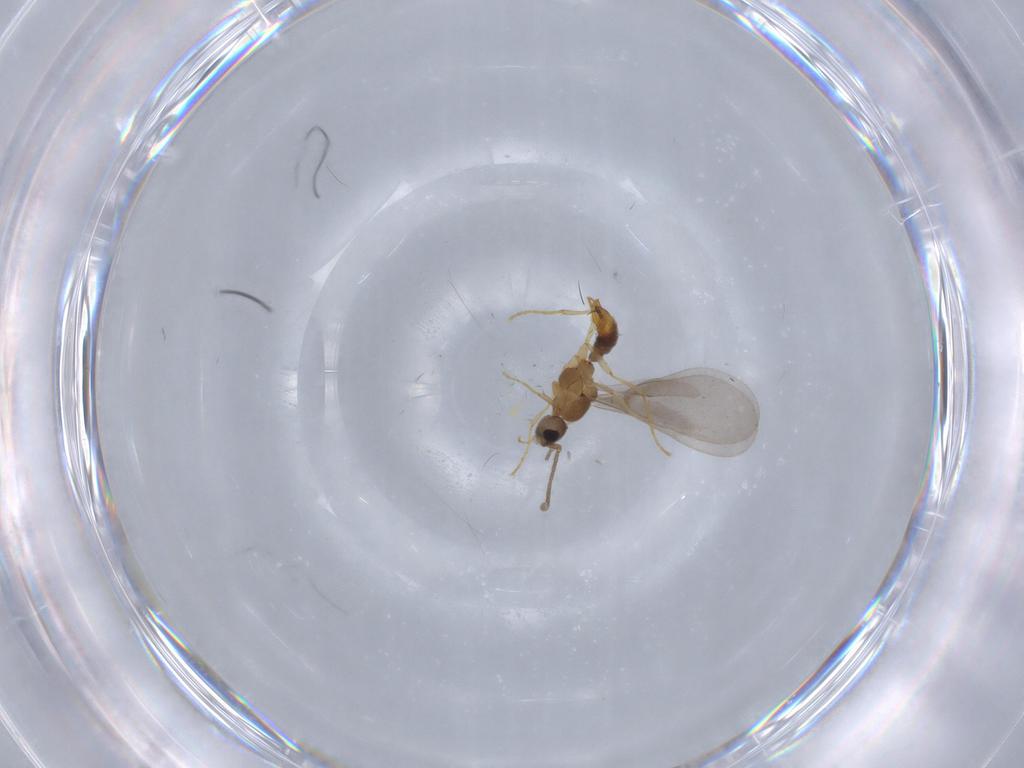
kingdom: Animalia
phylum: Arthropoda
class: Insecta
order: Hymenoptera
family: Formicidae
